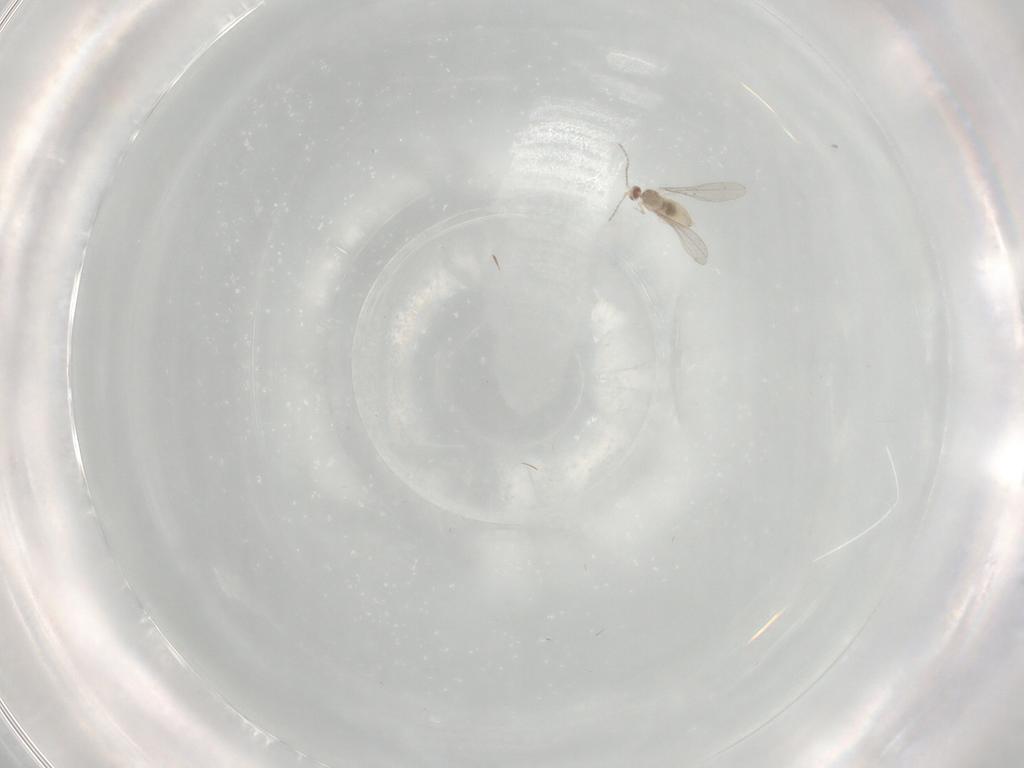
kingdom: Animalia
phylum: Arthropoda
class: Insecta
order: Diptera
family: Cecidomyiidae
